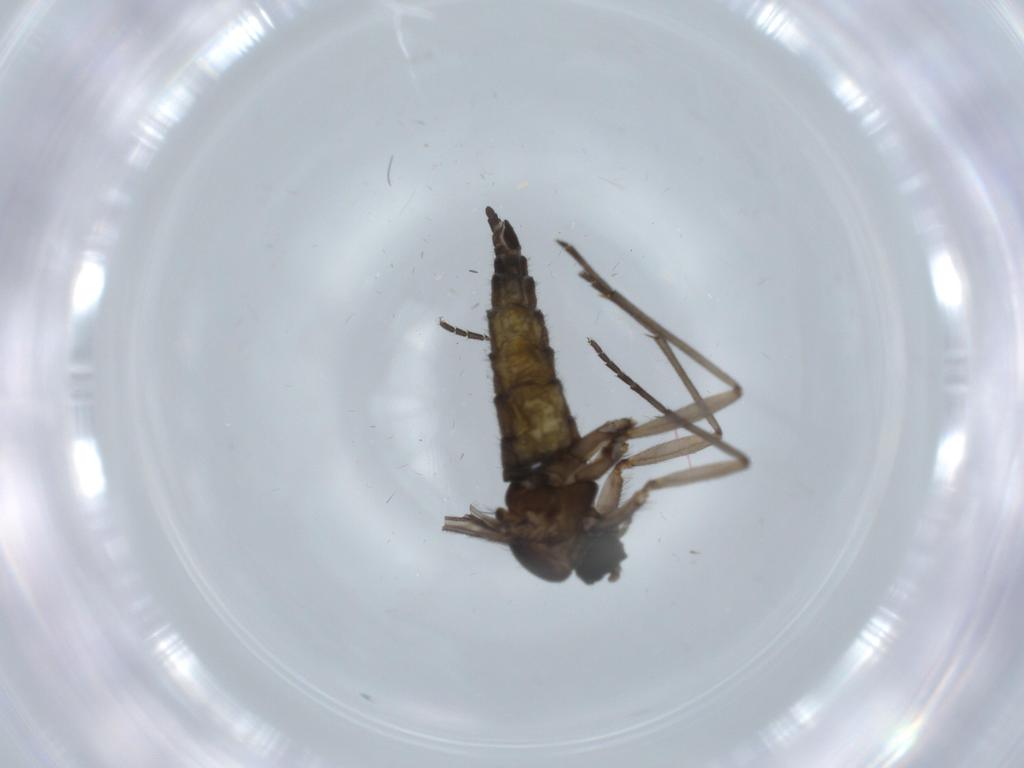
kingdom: Animalia
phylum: Arthropoda
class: Insecta
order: Diptera
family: Sciaridae
